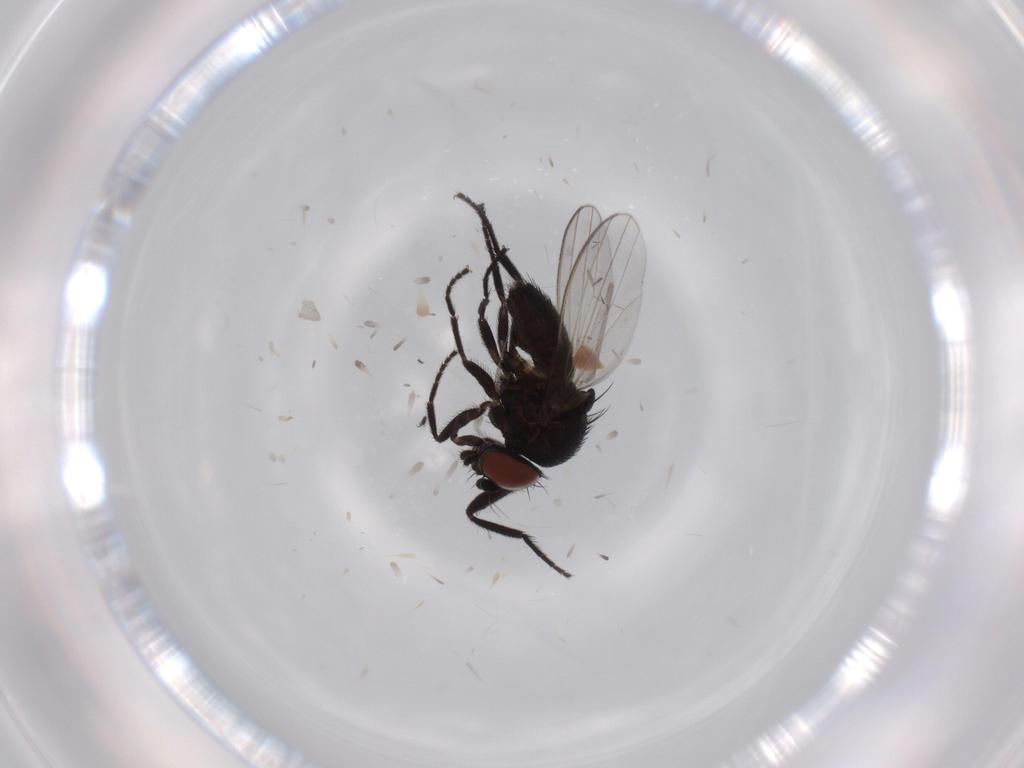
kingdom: Animalia
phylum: Arthropoda
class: Insecta
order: Diptera
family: Milichiidae
